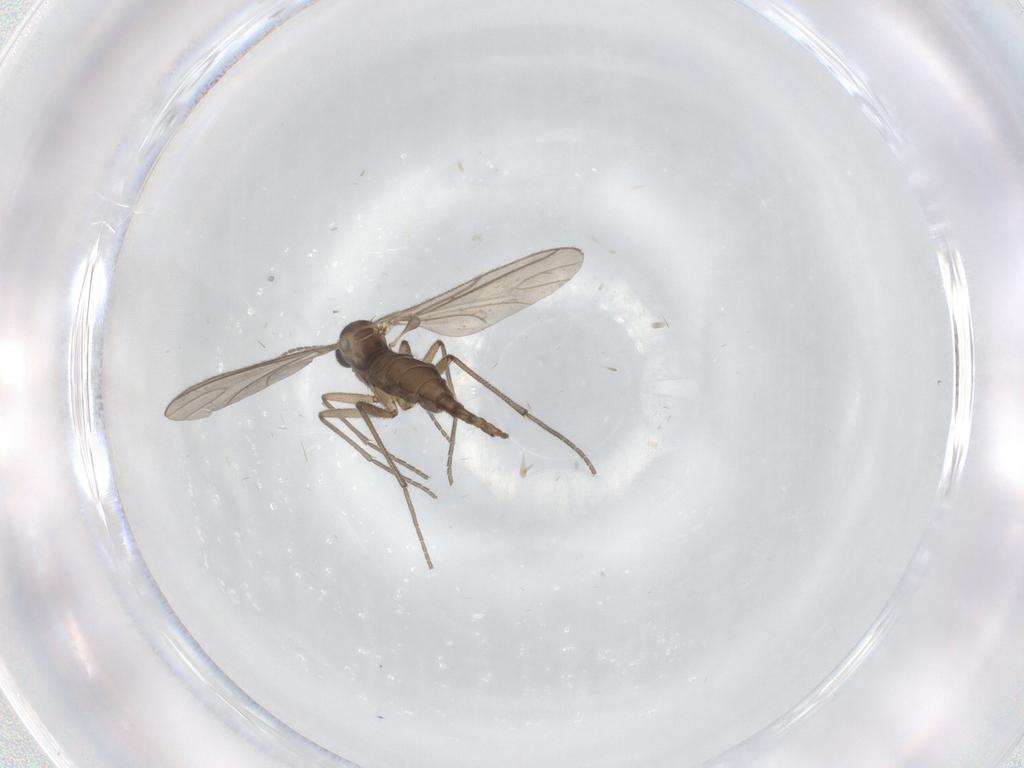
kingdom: Animalia
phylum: Arthropoda
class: Insecta
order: Diptera
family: Sciaridae
